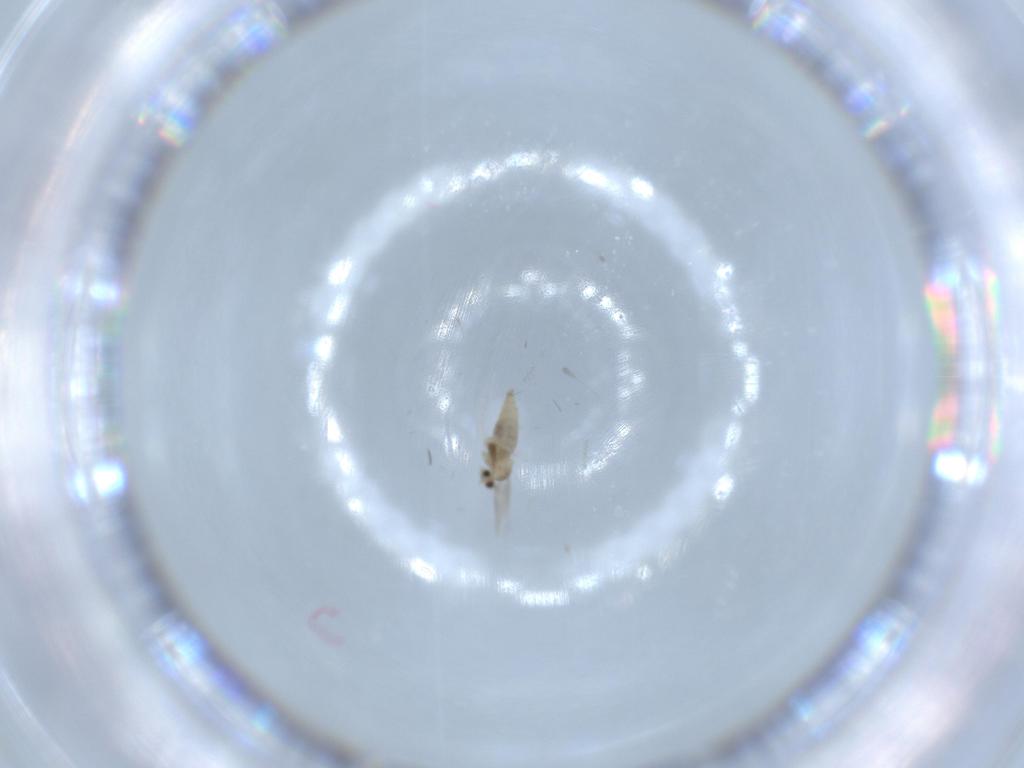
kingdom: Animalia
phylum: Arthropoda
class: Insecta
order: Diptera
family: Cecidomyiidae
